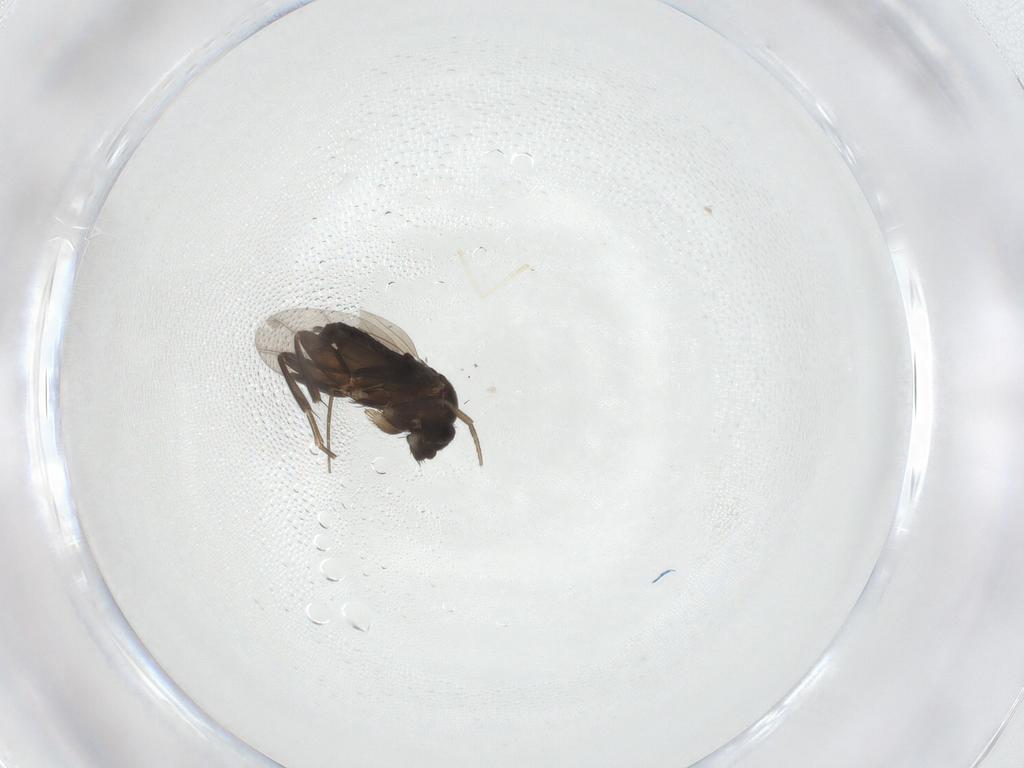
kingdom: Animalia
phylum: Arthropoda
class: Insecta
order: Diptera
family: Phoridae
